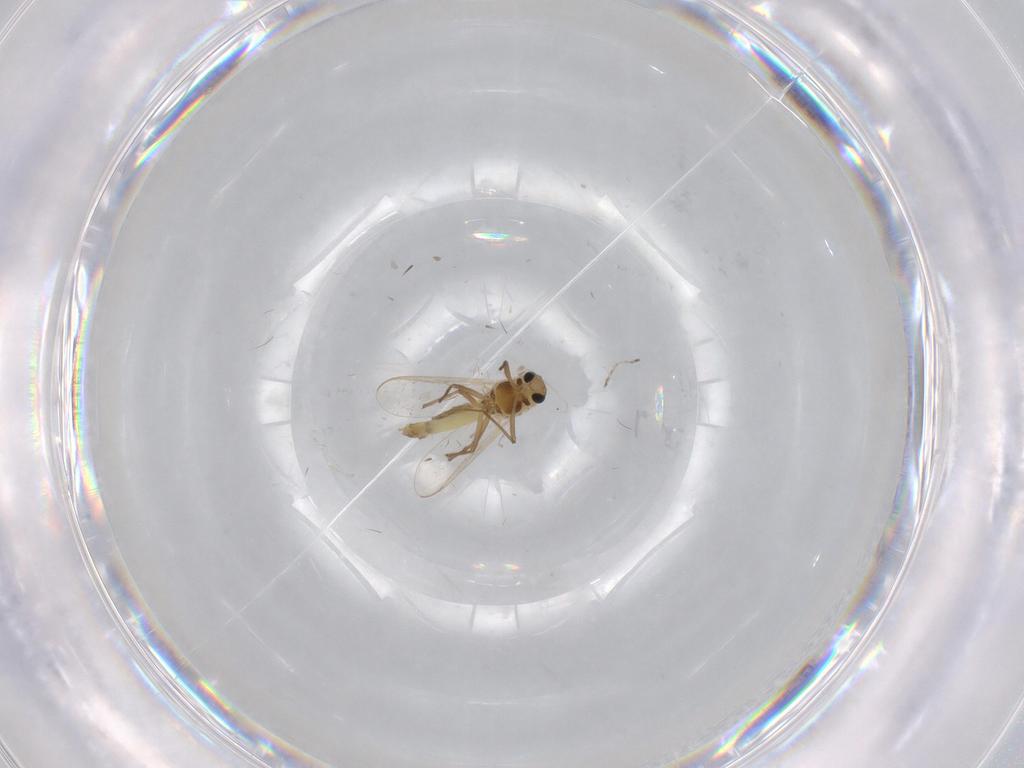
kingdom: Animalia
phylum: Arthropoda
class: Insecta
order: Diptera
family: Chironomidae
